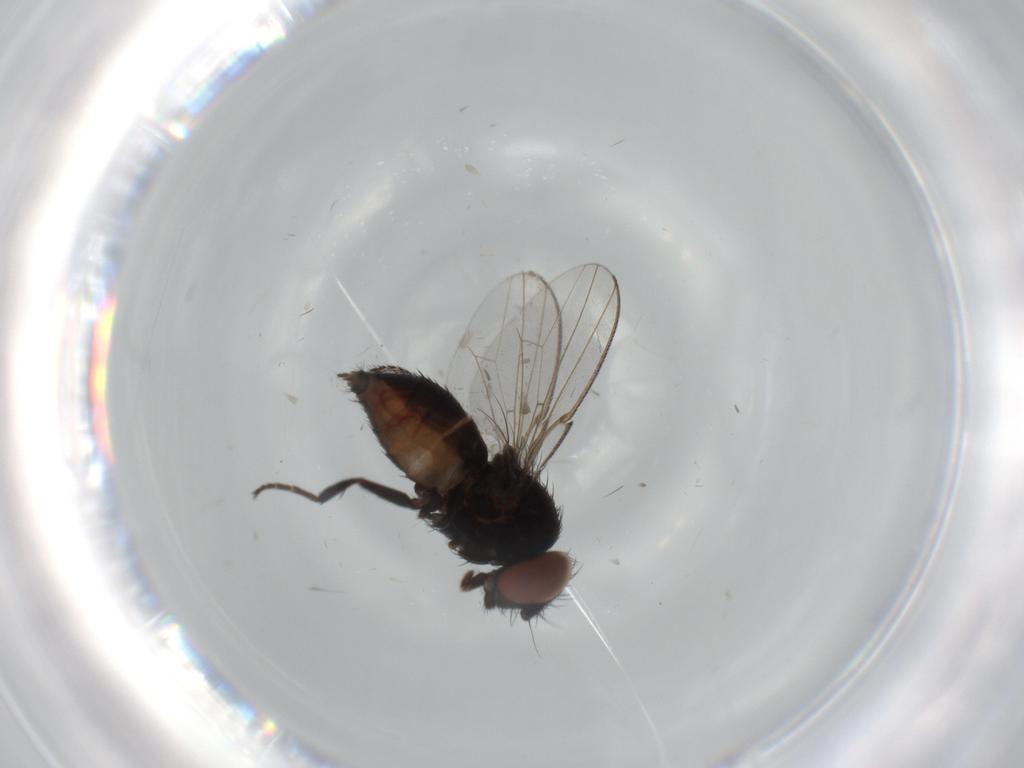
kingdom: Animalia
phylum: Arthropoda
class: Insecta
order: Diptera
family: Milichiidae
